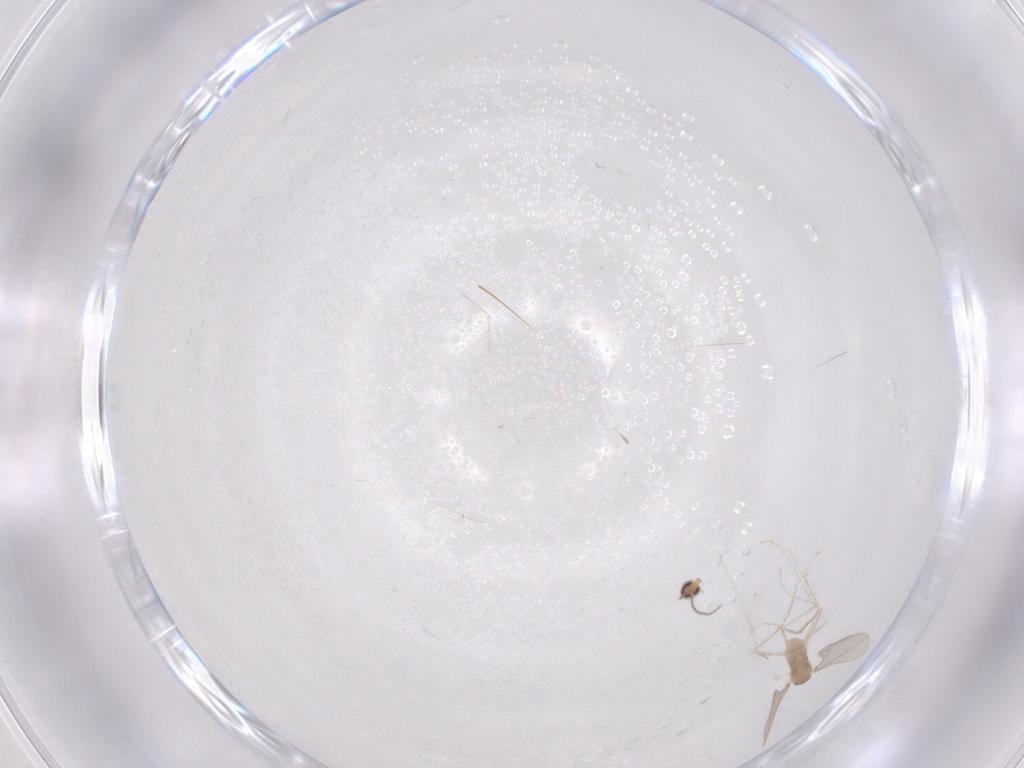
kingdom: Animalia
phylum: Arthropoda
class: Insecta
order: Diptera
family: Cecidomyiidae
